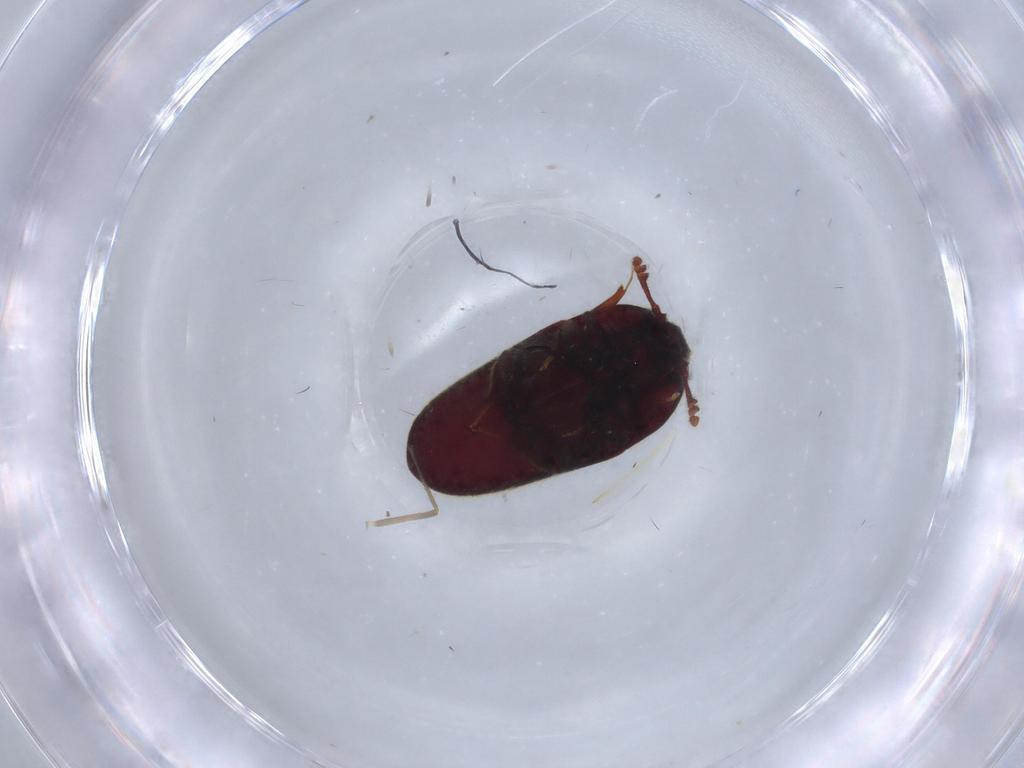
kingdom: Animalia
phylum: Arthropoda
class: Insecta
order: Coleoptera
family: Throscidae
